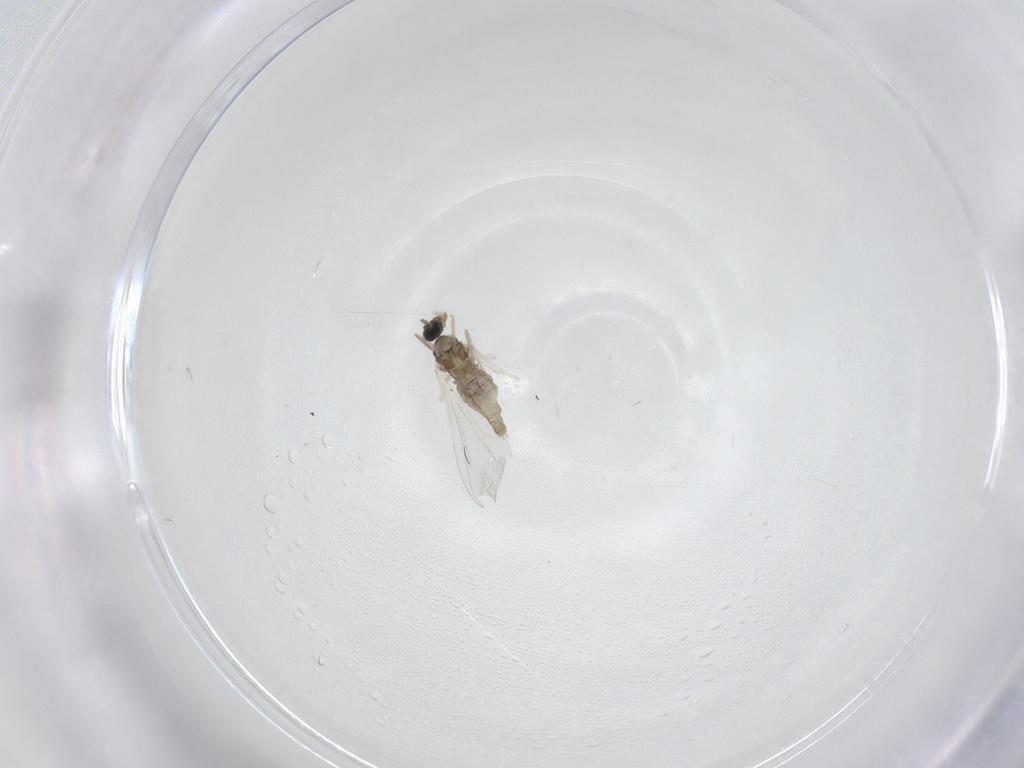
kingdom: Animalia
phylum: Arthropoda
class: Insecta
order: Diptera
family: Cecidomyiidae
